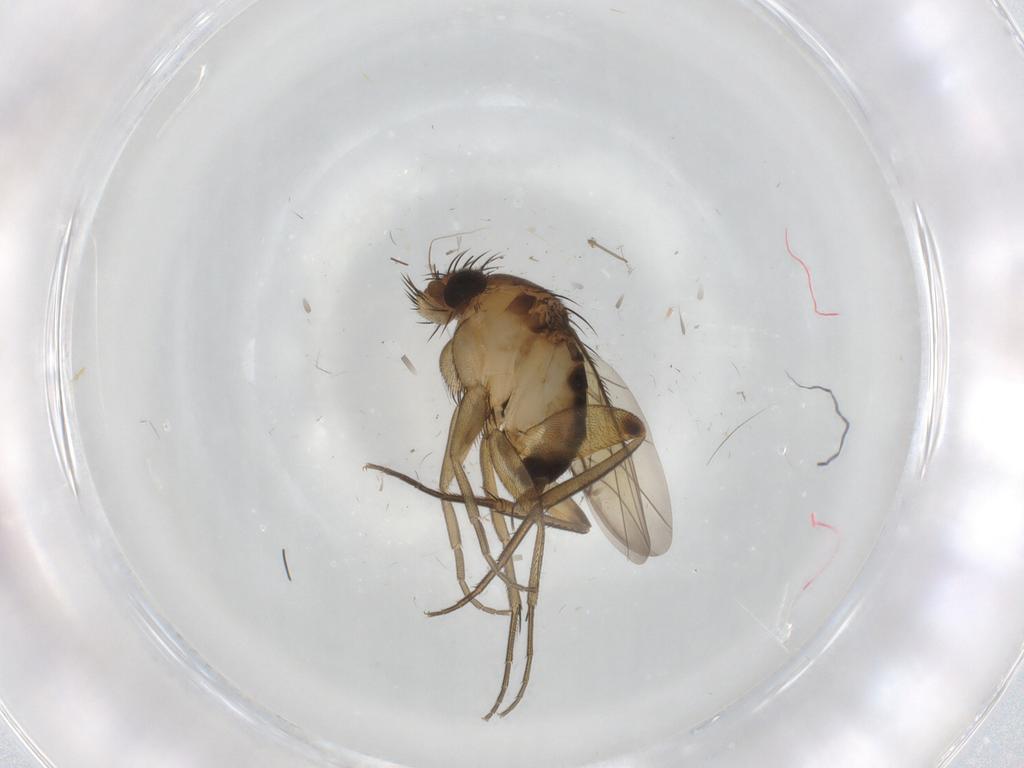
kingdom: Animalia
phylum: Arthropoda
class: Insecta
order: Diptera
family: Phoridae
